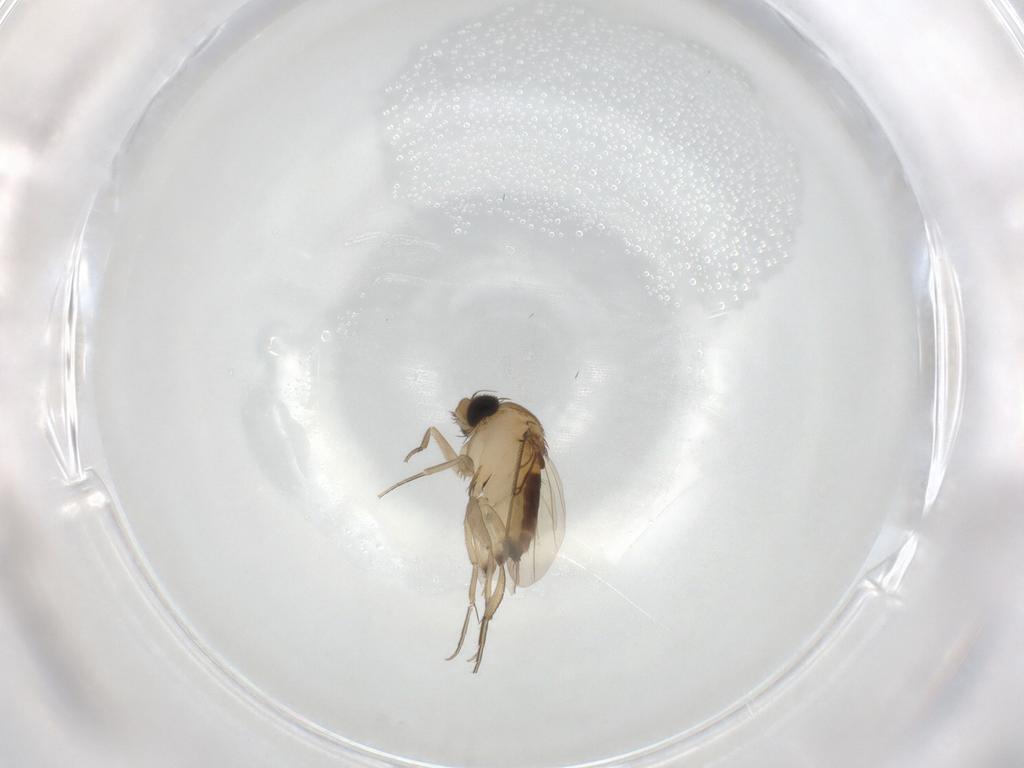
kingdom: Animalia
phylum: Arthropoda
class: Insecta
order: Diptera
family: Phoridae
